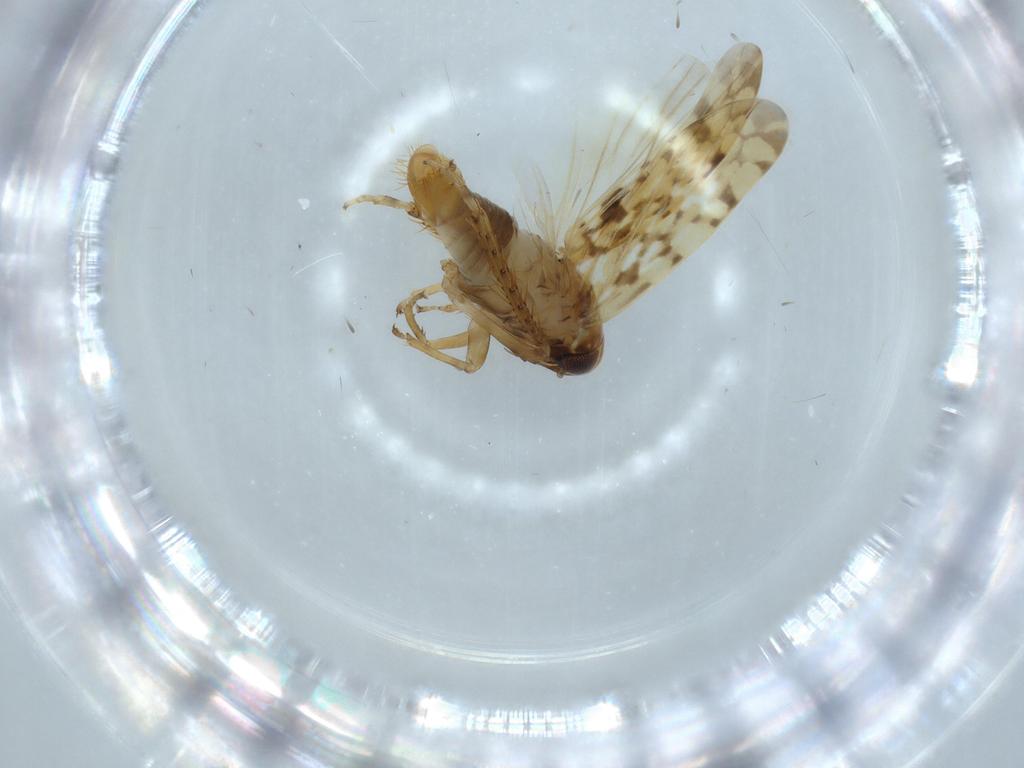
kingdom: Animalia
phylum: Arthropoda
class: Insecta
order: Hemiptera
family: Cicadellidae
